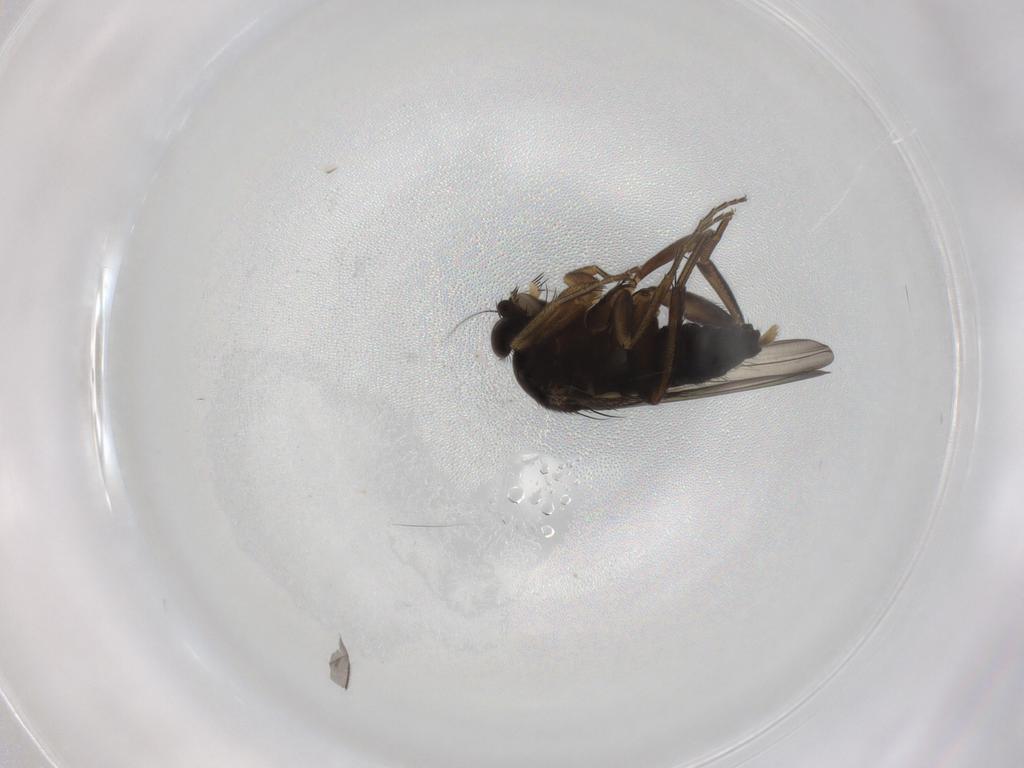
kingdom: Animalia
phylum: Arthropoda
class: Insecta
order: Diptera
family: Phoridae
